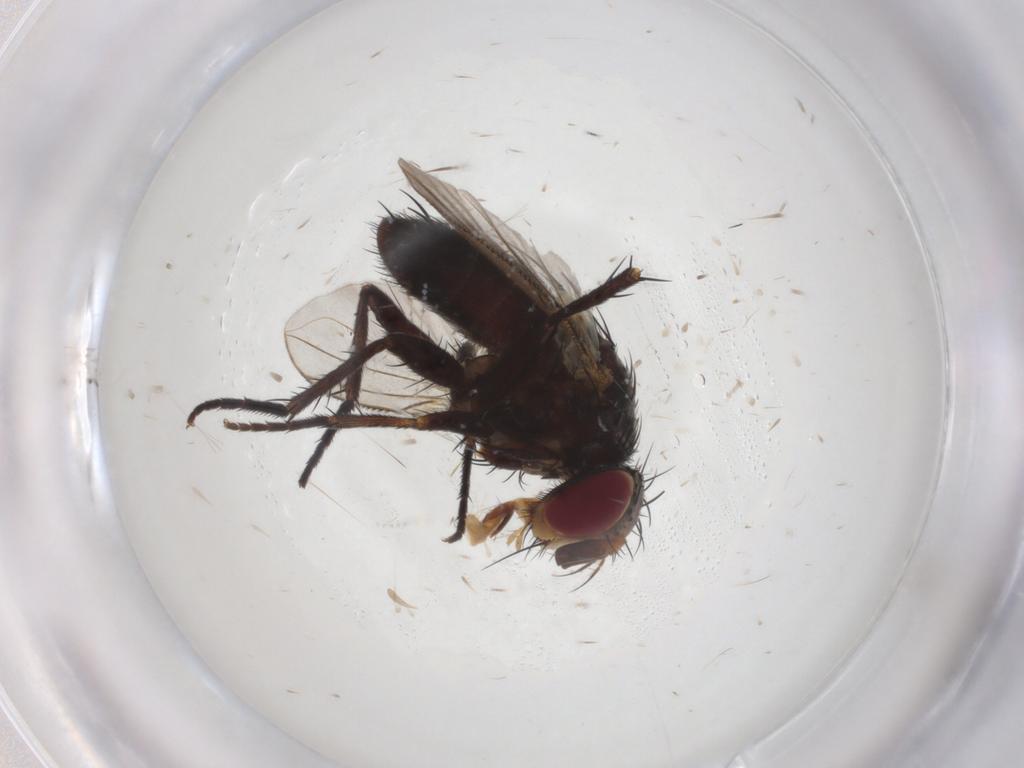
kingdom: Animalia
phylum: Arthropoda
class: Insecta
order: Diptera
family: Tachinidae
